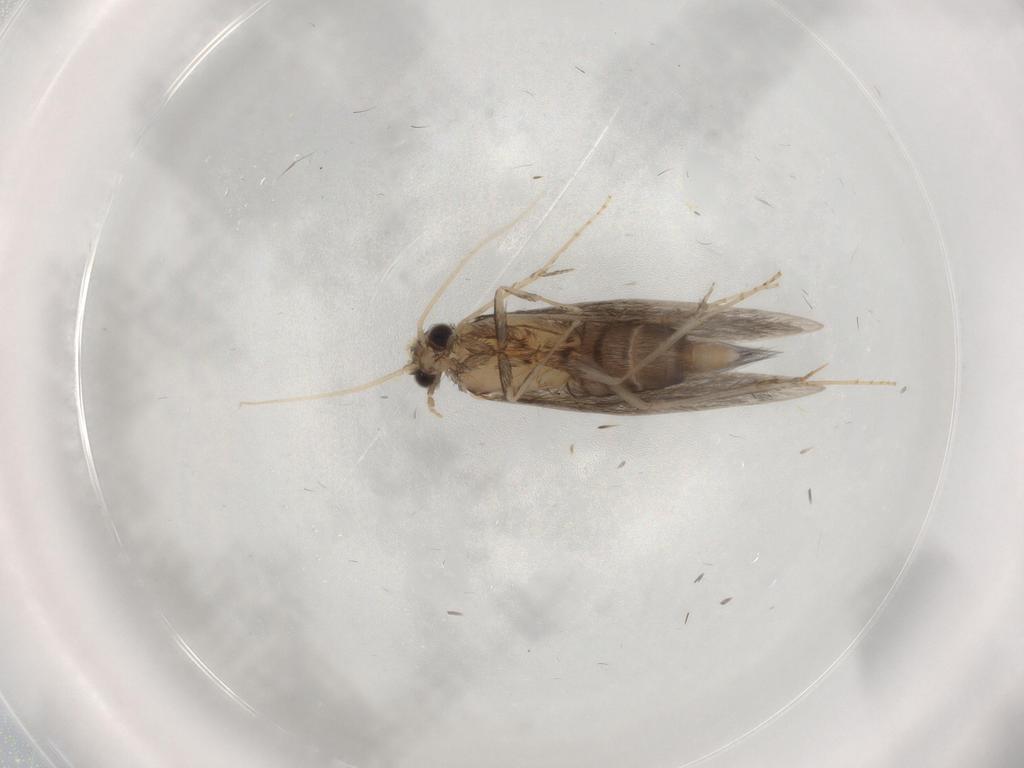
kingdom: Animalia
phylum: Arthropoda
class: Insecta
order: Trichoptera
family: Hydroptilidae
